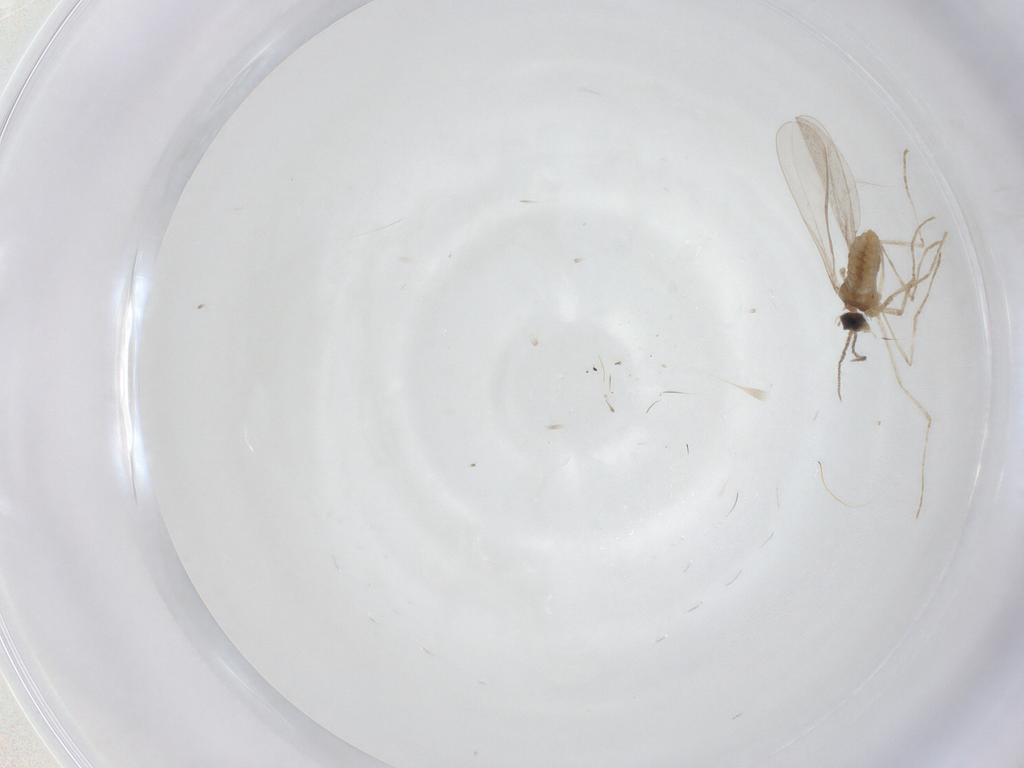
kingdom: Animalia
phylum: Arthropoda
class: Insecta
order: Diptera
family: Cecidomyiidae
